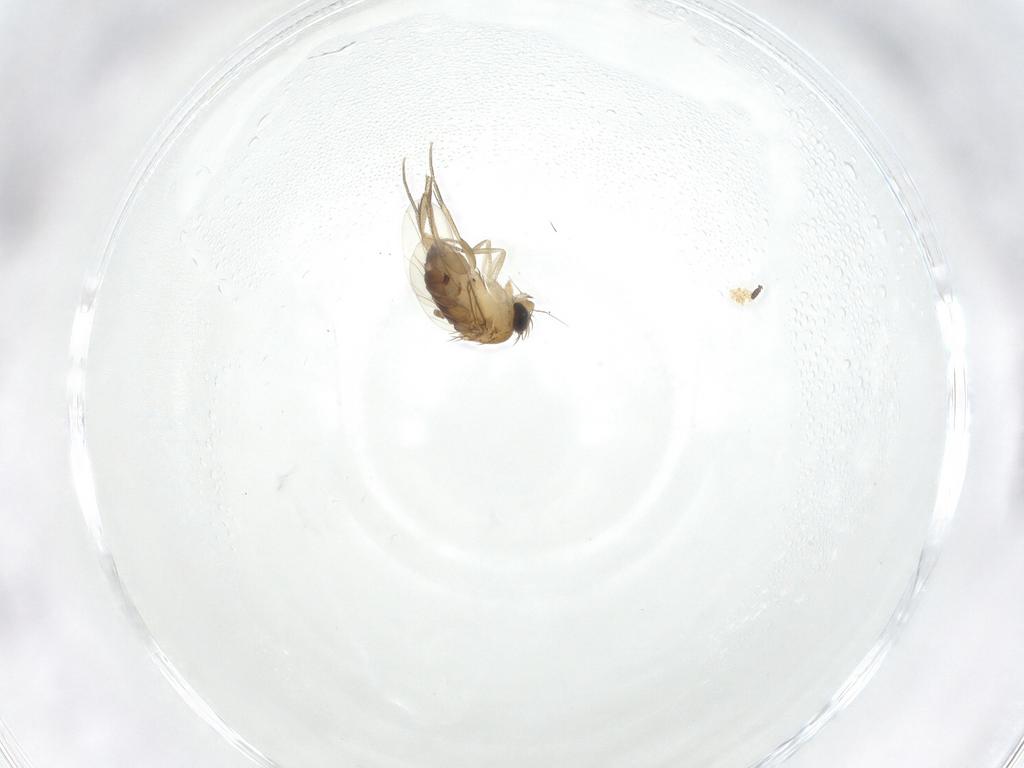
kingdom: Animalia
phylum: Arthropoda
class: Insecta
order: Diptera
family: Phoridae
